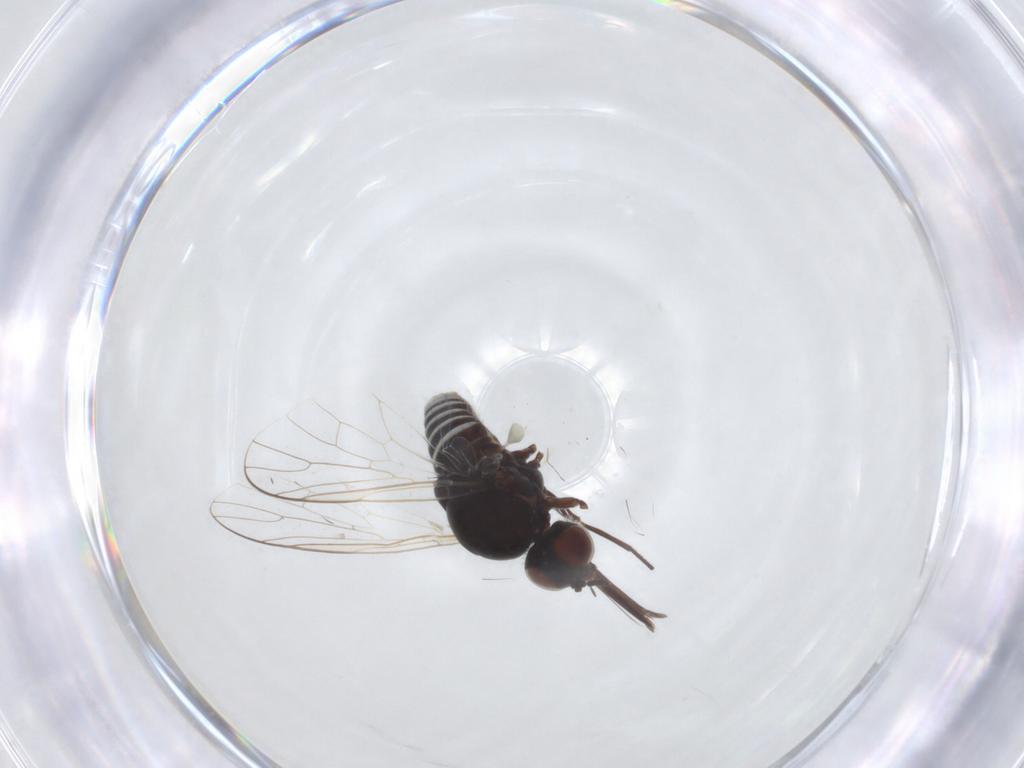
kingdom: Animalia
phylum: Arthropoda
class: Insecta
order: Diptera
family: Bombyliidae
